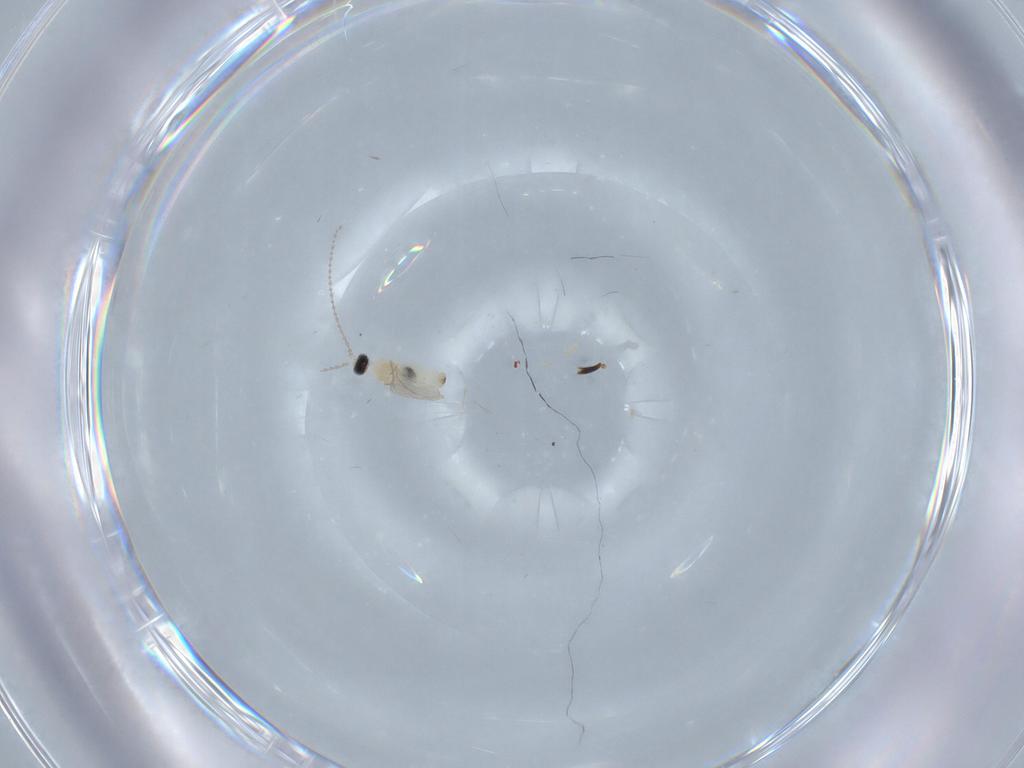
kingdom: Animalia
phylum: Arthropoda
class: Insecta
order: Diptera
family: Cecidomyiidae
